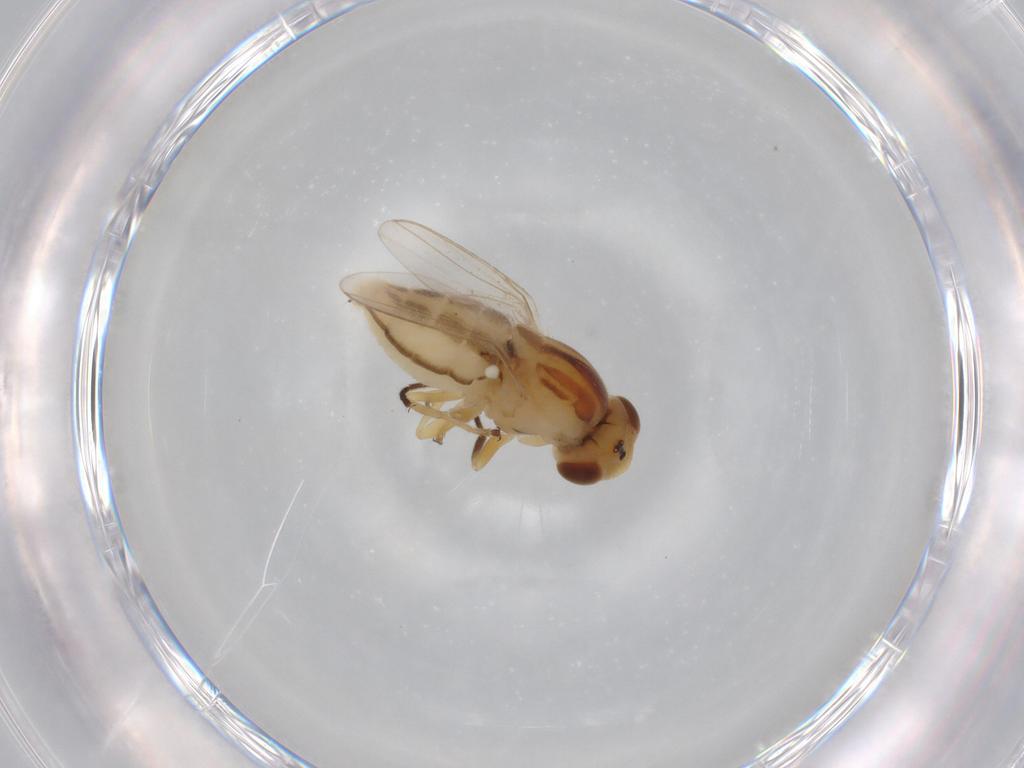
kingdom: Animalia
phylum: Arthropoda
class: Insecta
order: Diptera
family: Chloropidae
